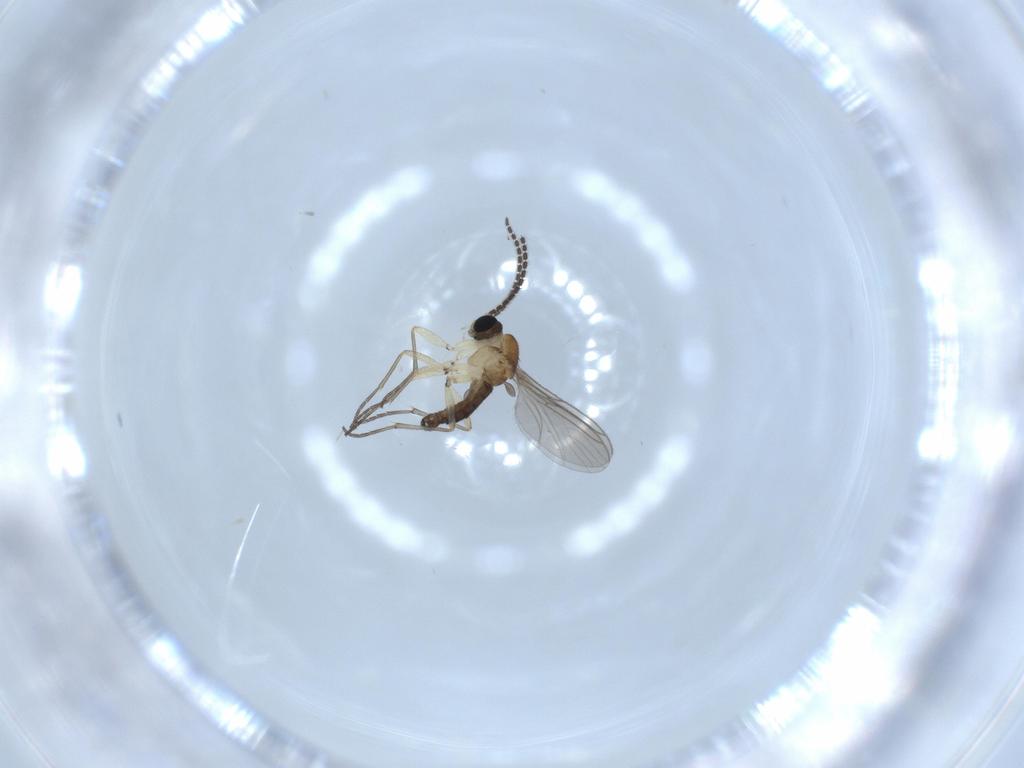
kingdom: Animalia
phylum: Arthropoda
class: Insecta
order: Diptera
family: Sciaridae
